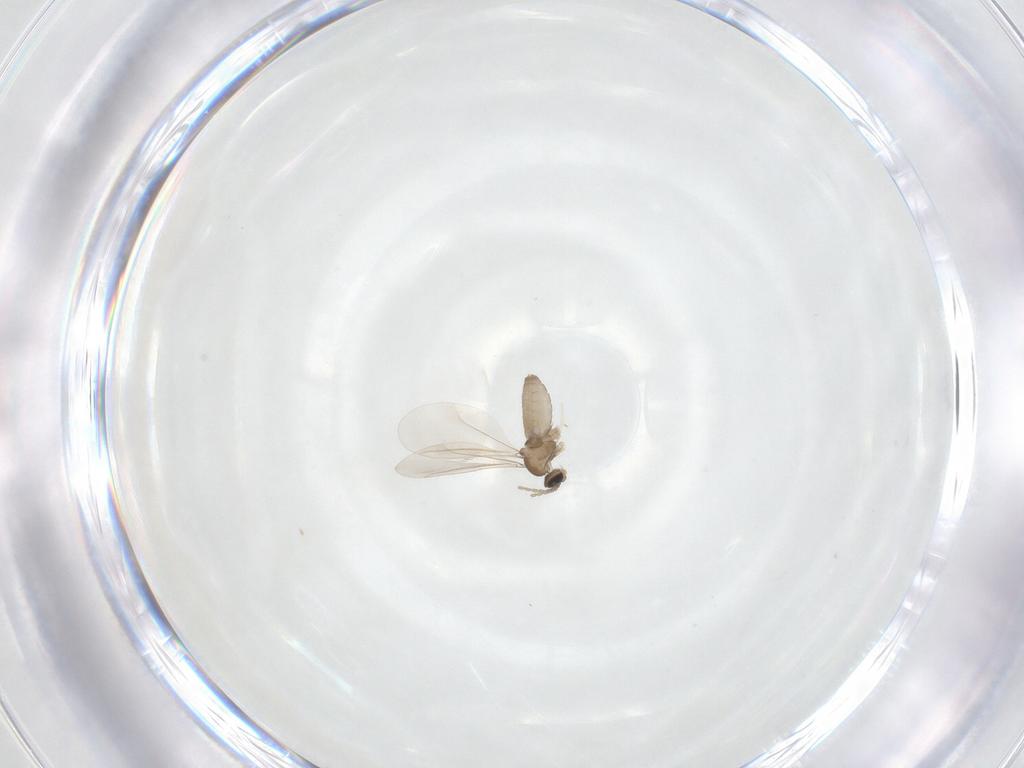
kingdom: Animalia
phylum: Arthropoda
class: Insecta
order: Diptera
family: Cecidomyiidae
